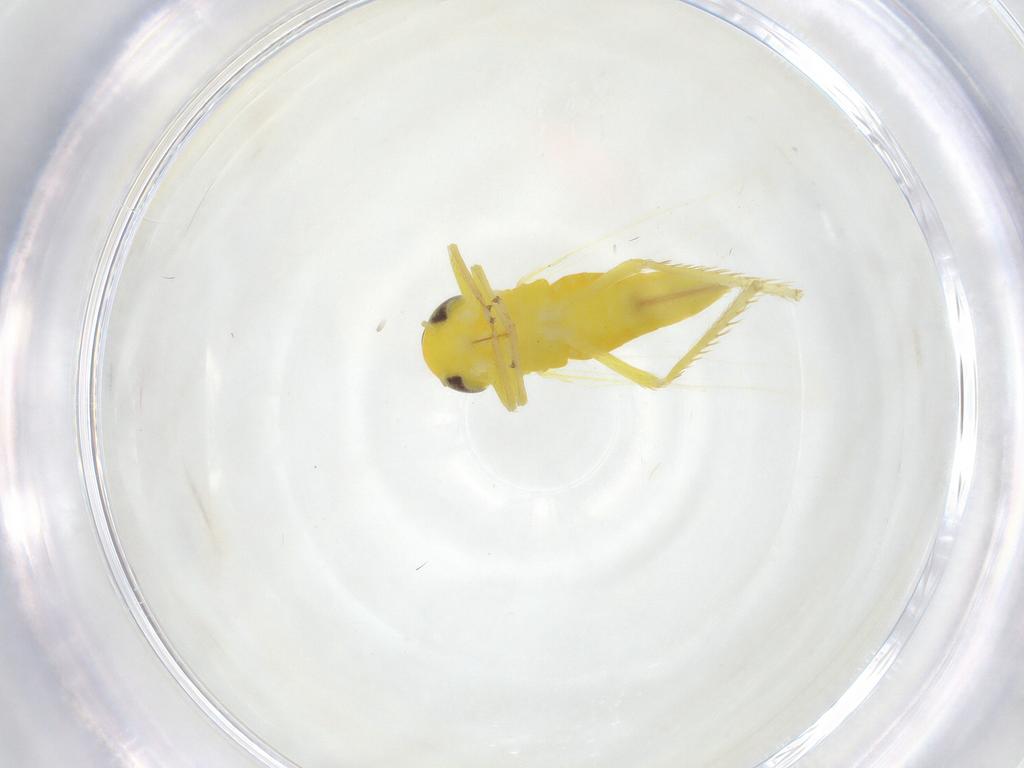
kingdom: Animalia
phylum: Arthropoda
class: Insecta
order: Hemiptera
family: Cicadellidae
